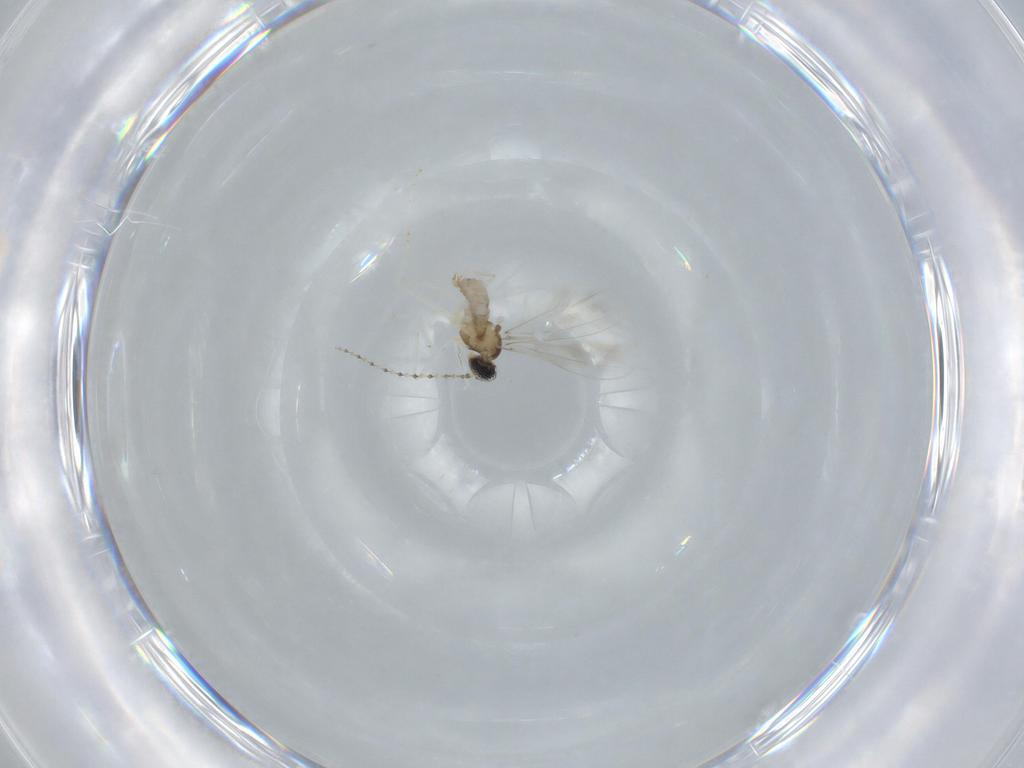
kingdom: Animalia
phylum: Arthropoda
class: Insecta
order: Diptera
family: Cecidomyiidae
